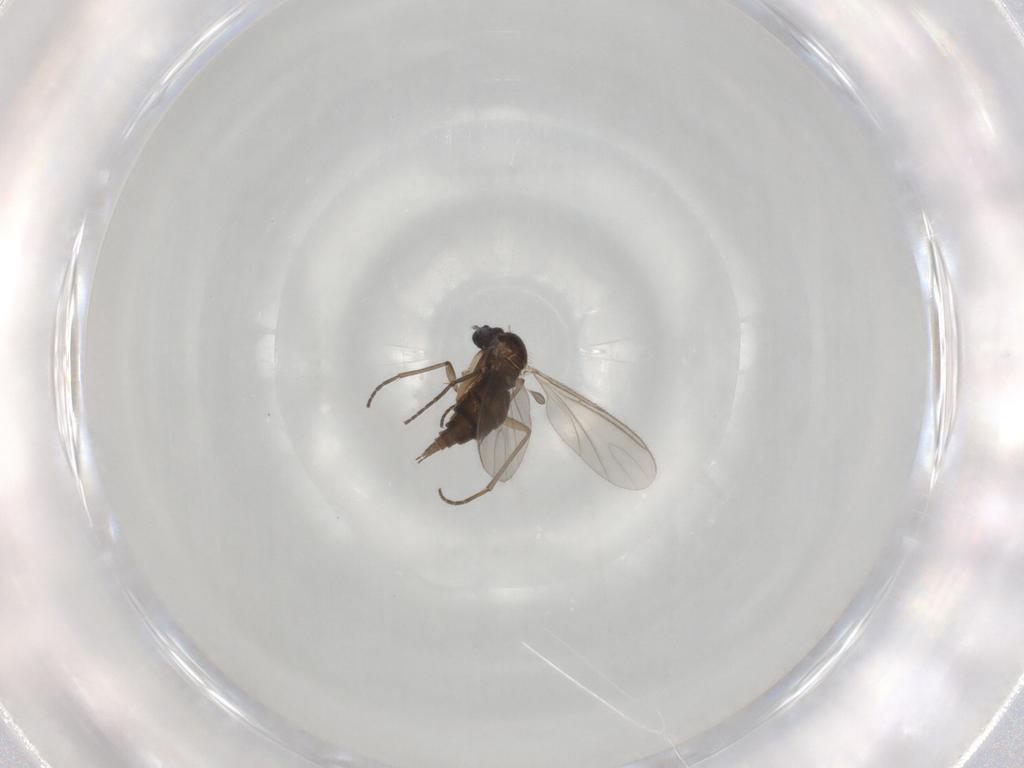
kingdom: Animalia
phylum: Arthropoda
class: Insecta
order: Diptera
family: Sciaridae
